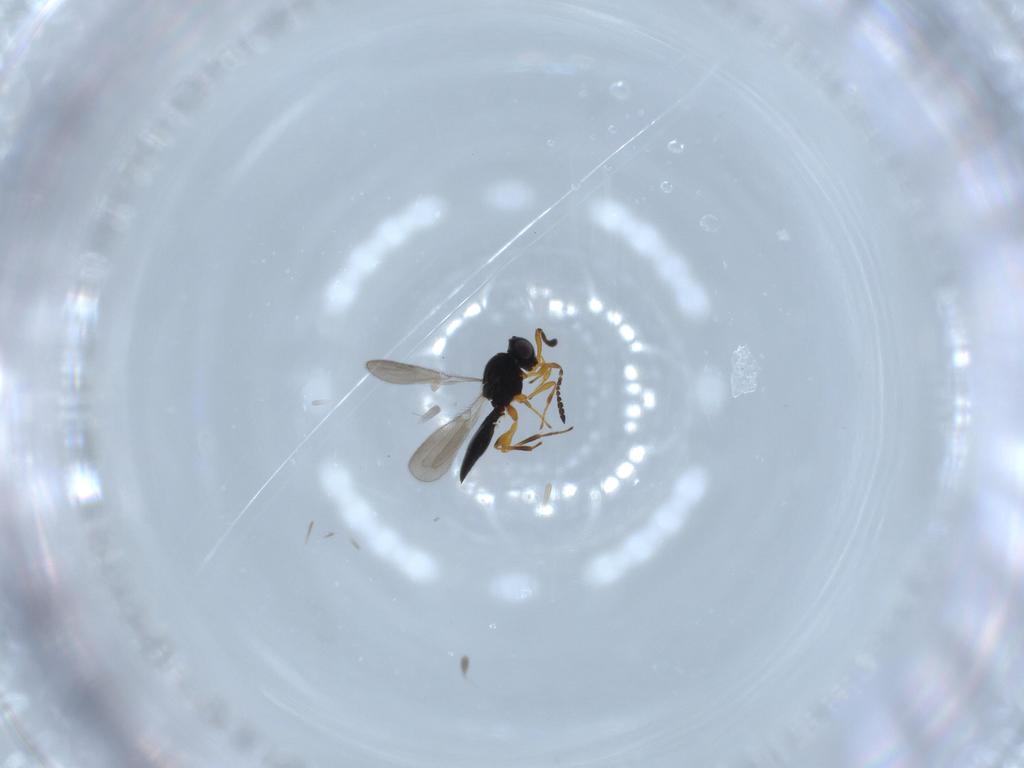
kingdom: Animalia
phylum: Arthropoda
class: Insecta
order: Hymenoptera
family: Platygastridae
